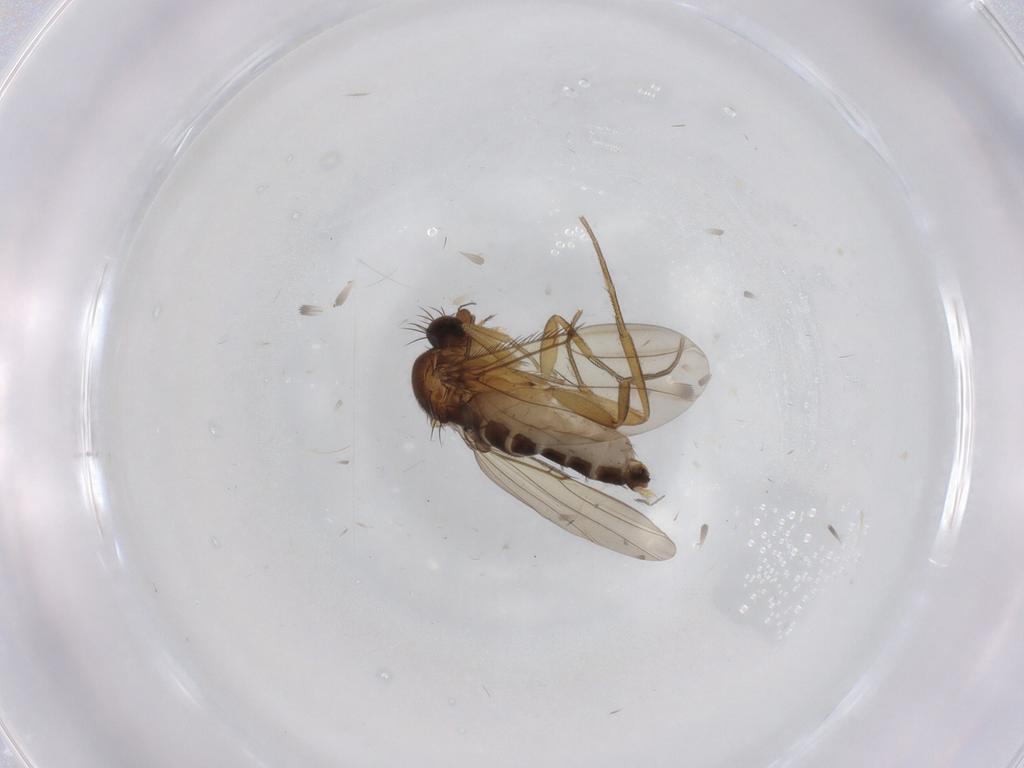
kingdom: Animalia
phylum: Arthropoda
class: Insecta
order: Diptera
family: Phoridae
